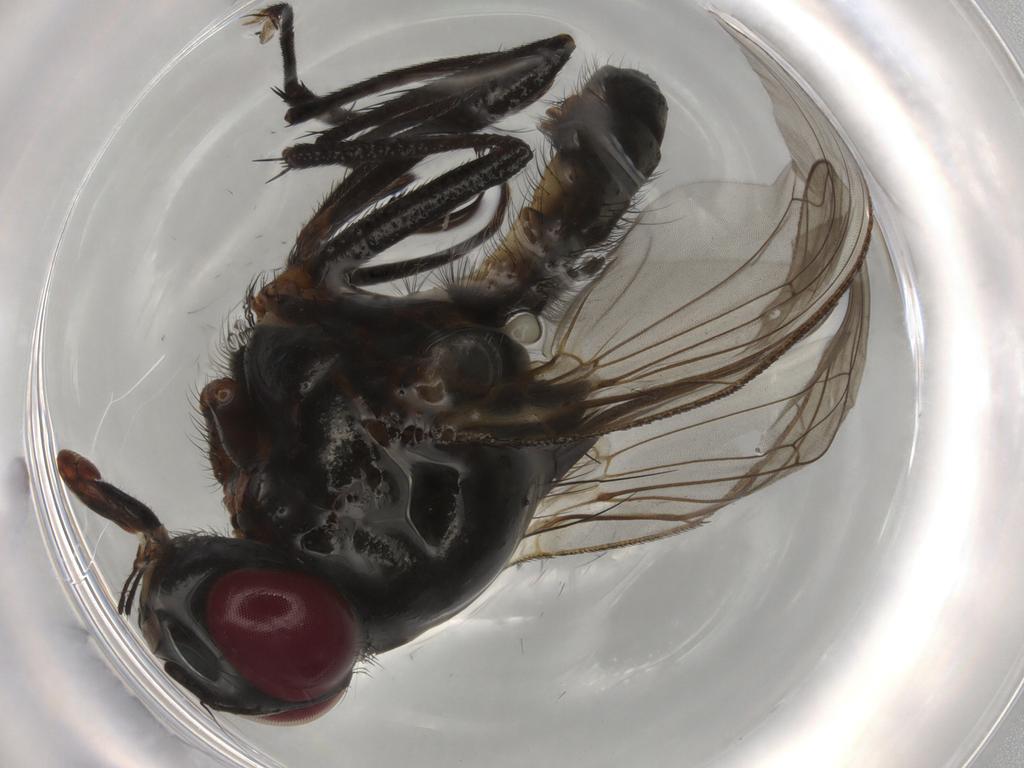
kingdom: Animalia
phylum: Arthropoda
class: Insecta
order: Diptera
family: Anthomyiidae
